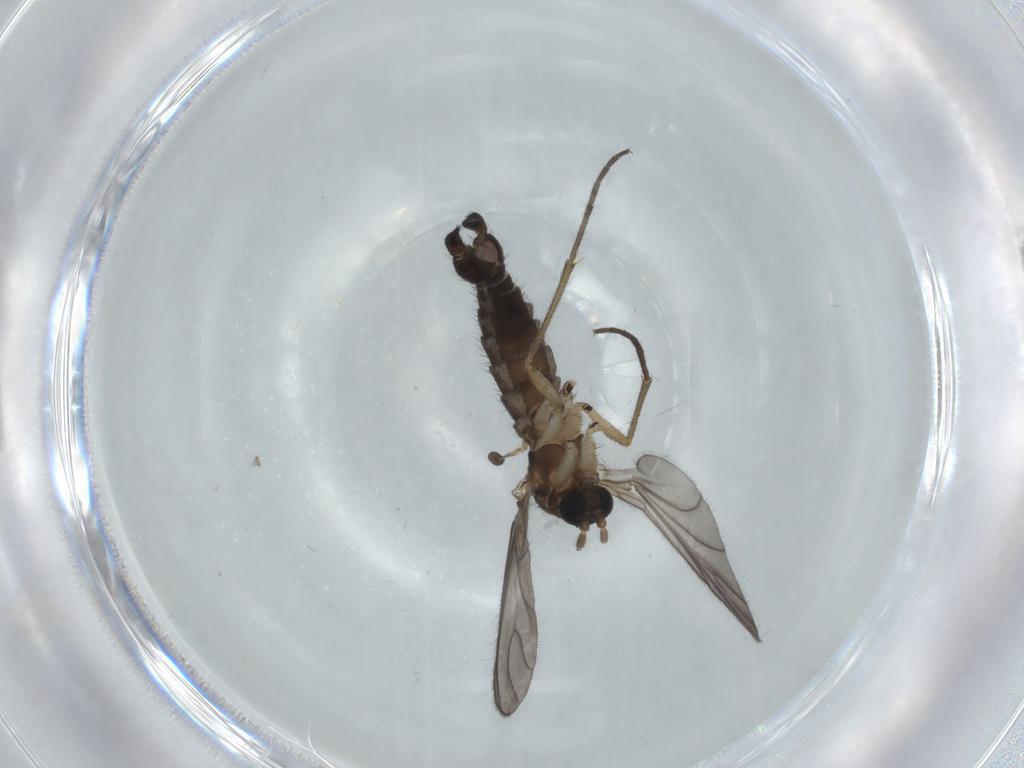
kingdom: Animalia
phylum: Arthropoda
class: Insecta
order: Diptera
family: Sciaridae
